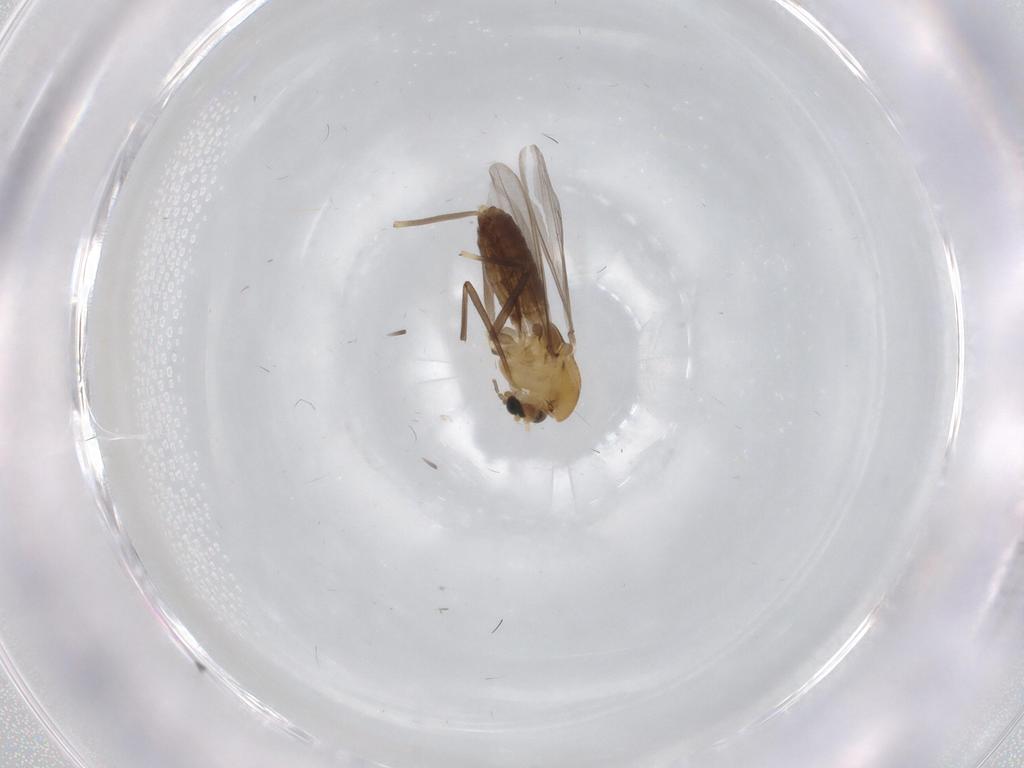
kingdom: Animalia
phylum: Arthropoda
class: Insecta
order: Diptera
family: Chironomidae
